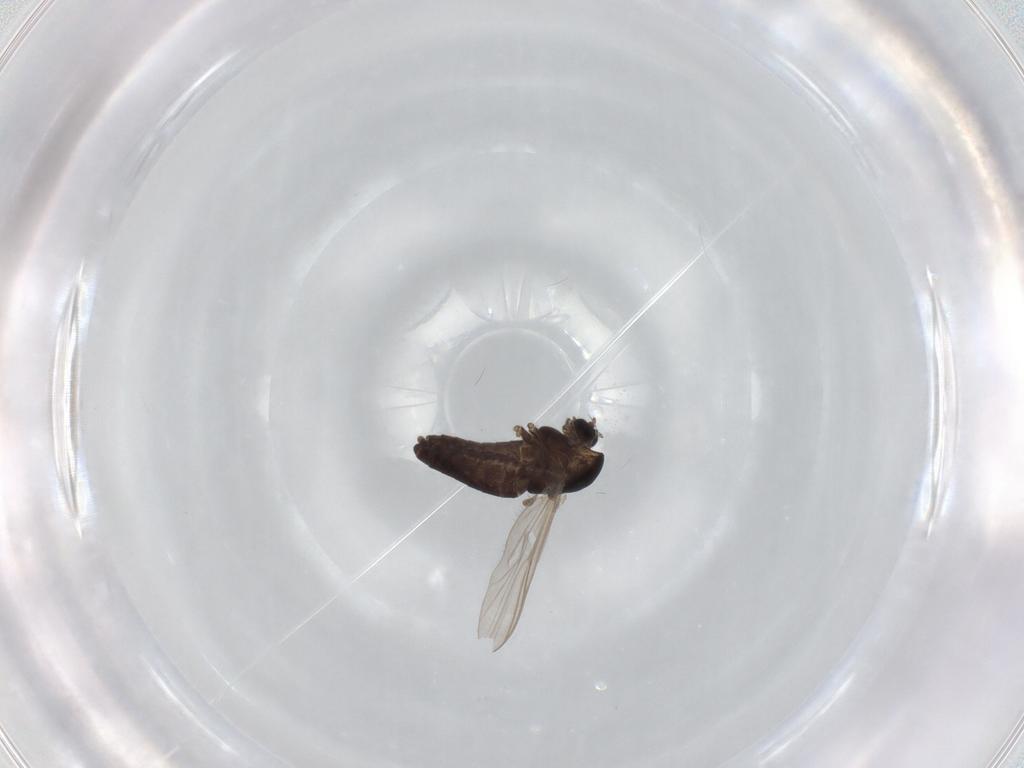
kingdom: Animalia
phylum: Arthropoda
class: Insecta
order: Diptera
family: Chironomidae
